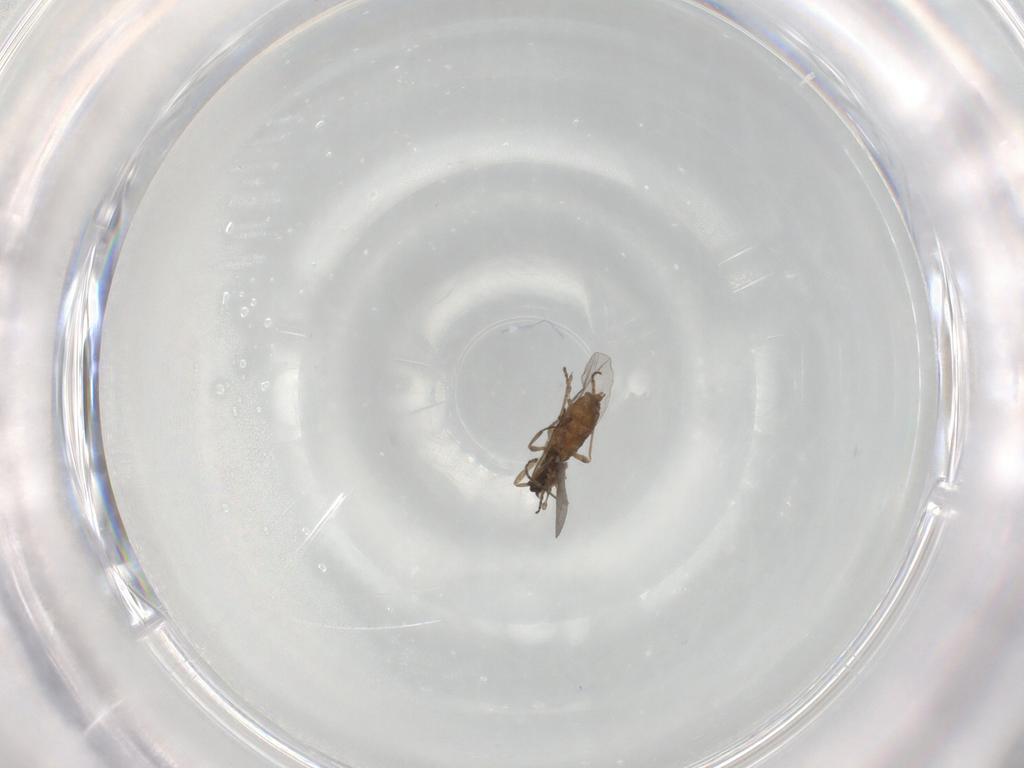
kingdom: Animalia
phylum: Arthropoda
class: Insecta
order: Diptera
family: Cecidomyiidae
